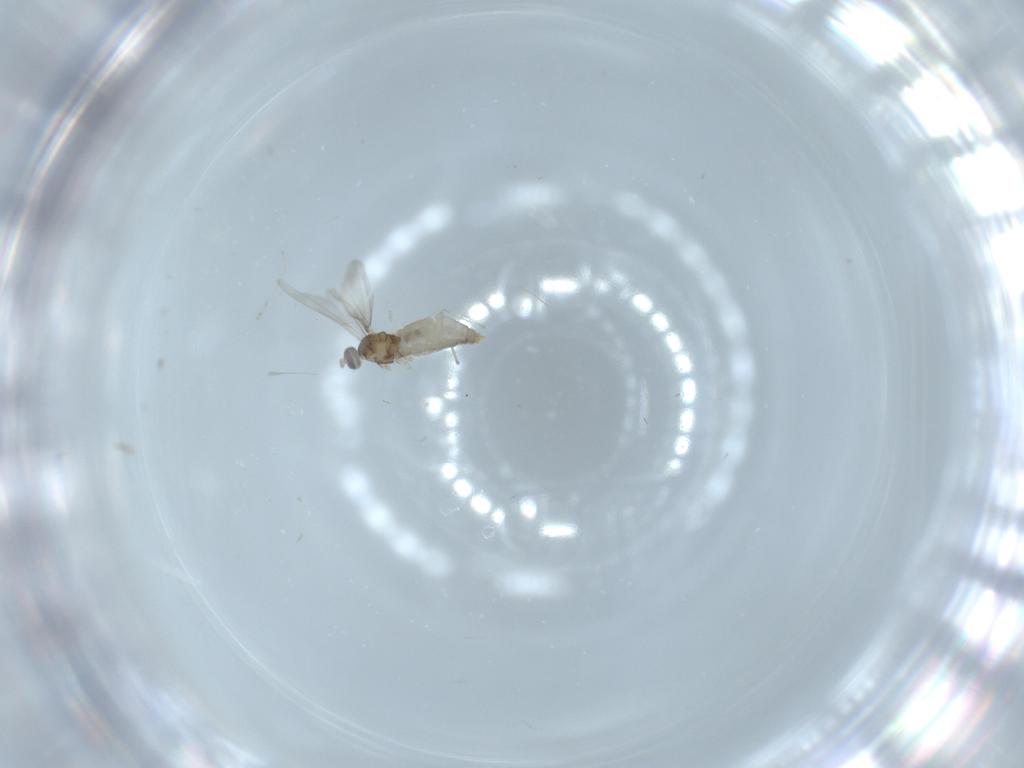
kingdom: Animalia
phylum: Arthropoda
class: Insecta
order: Diptera
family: Cecidomyiidae
